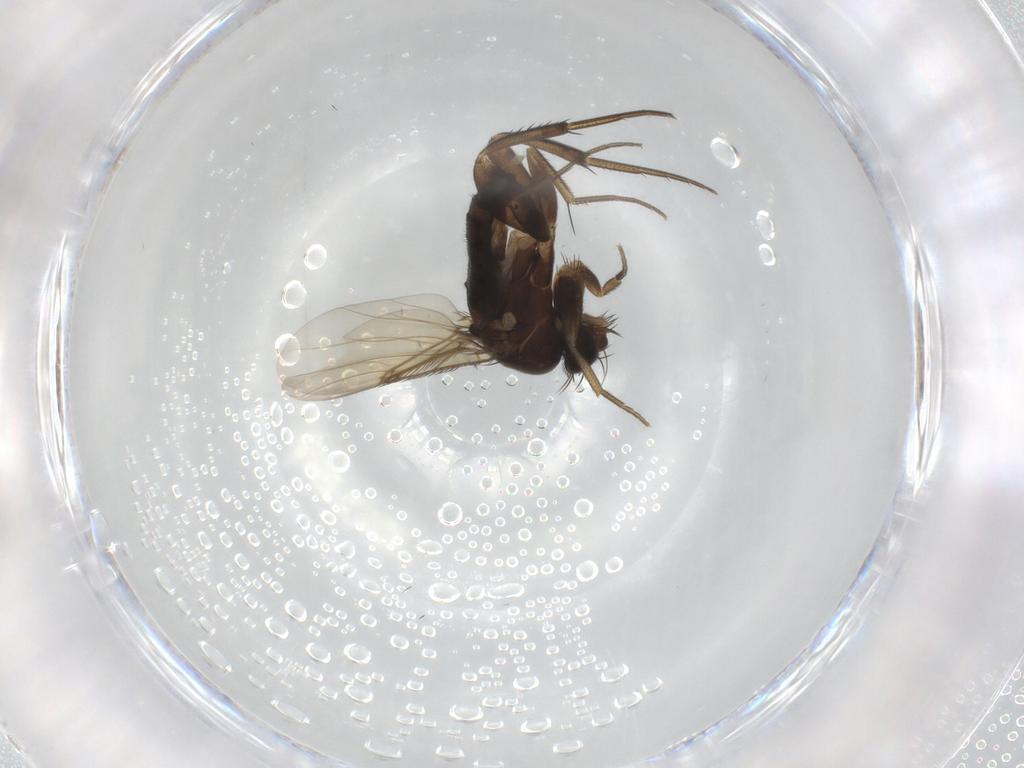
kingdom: Animalia
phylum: Arthropoda
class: Insecta
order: Diptera
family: Phoridae
